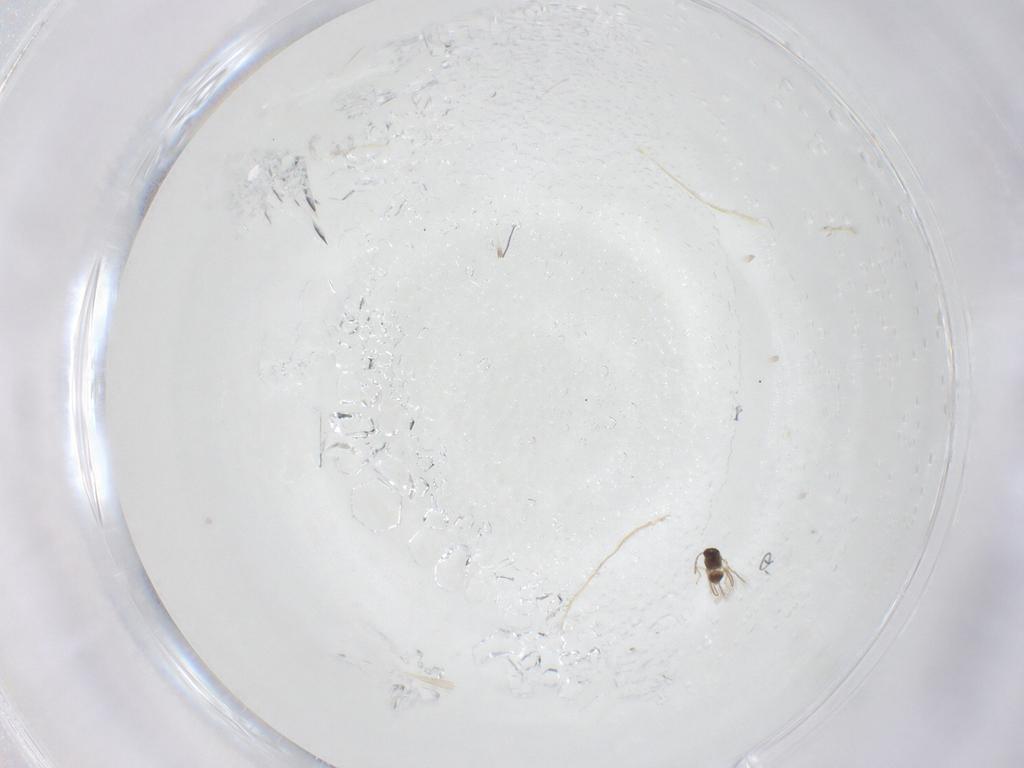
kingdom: Animalia
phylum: Arthropoda
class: Insecta
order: Hymenoptera
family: Mymaridae
